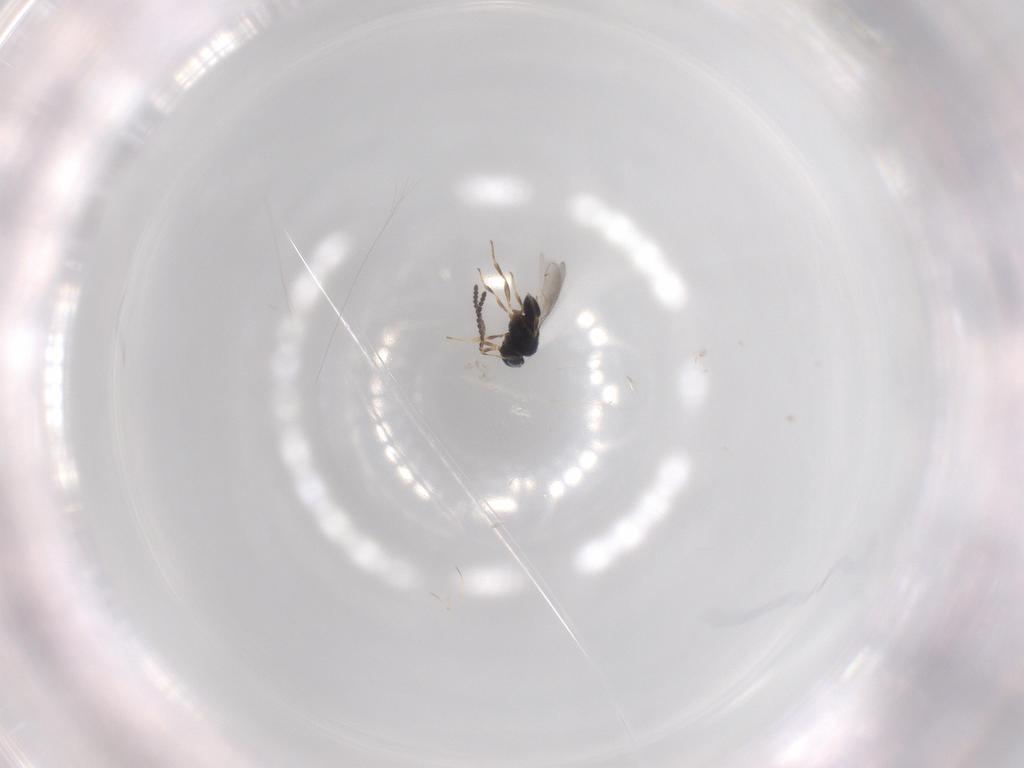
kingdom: Animalia
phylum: Arthropoda
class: Insecta
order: Hymenoptera
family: Scelionidae
